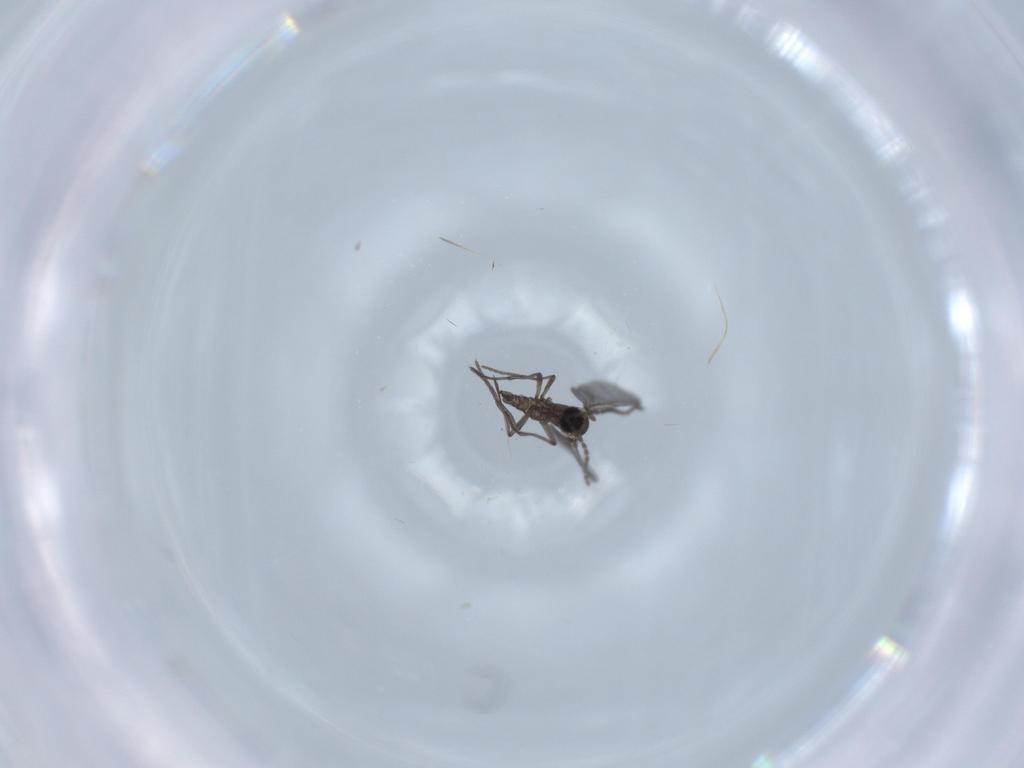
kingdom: Animalia
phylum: Arthropoda
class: Insecta
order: Diptera
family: Sciaridae
